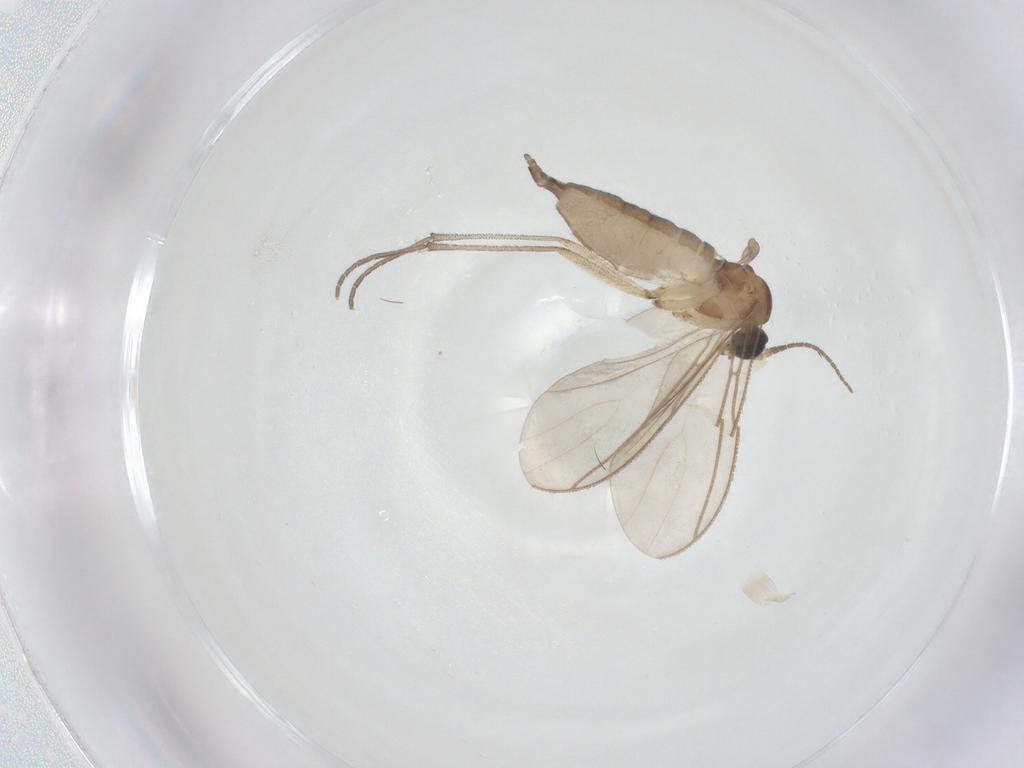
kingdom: Animalia
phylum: Arthropoda
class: Insecta
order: Diptera
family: Sciaridae
